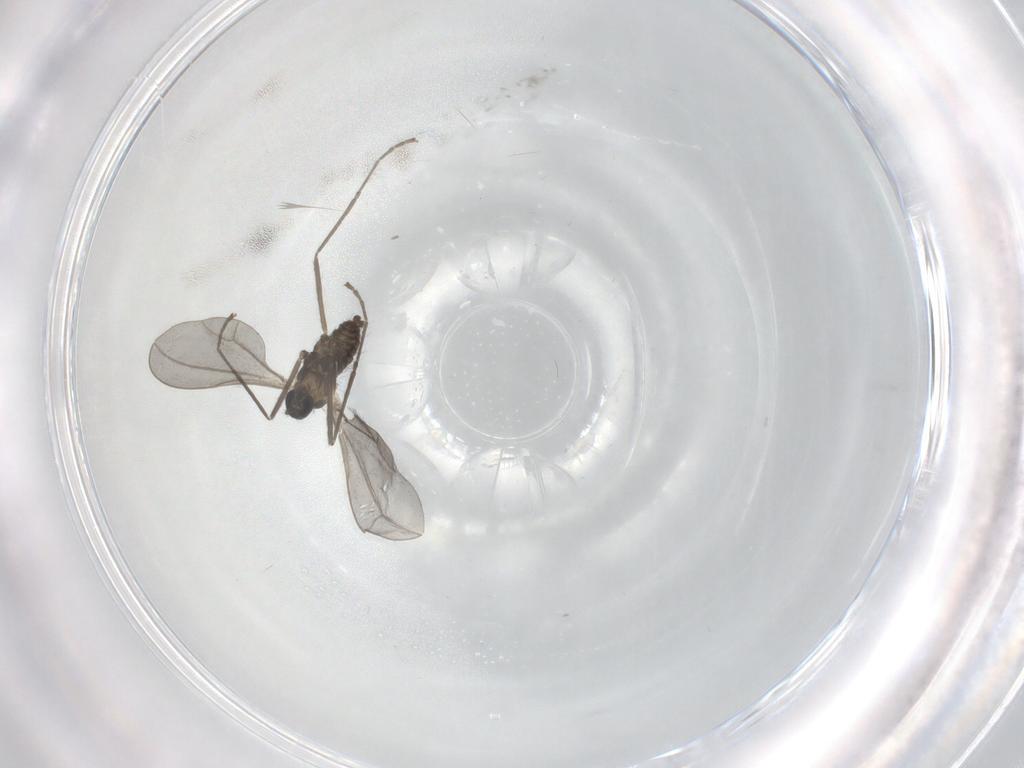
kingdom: Animalia
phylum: Arthropoda
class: Insecta
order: Diptera
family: Cecidomyiidae
